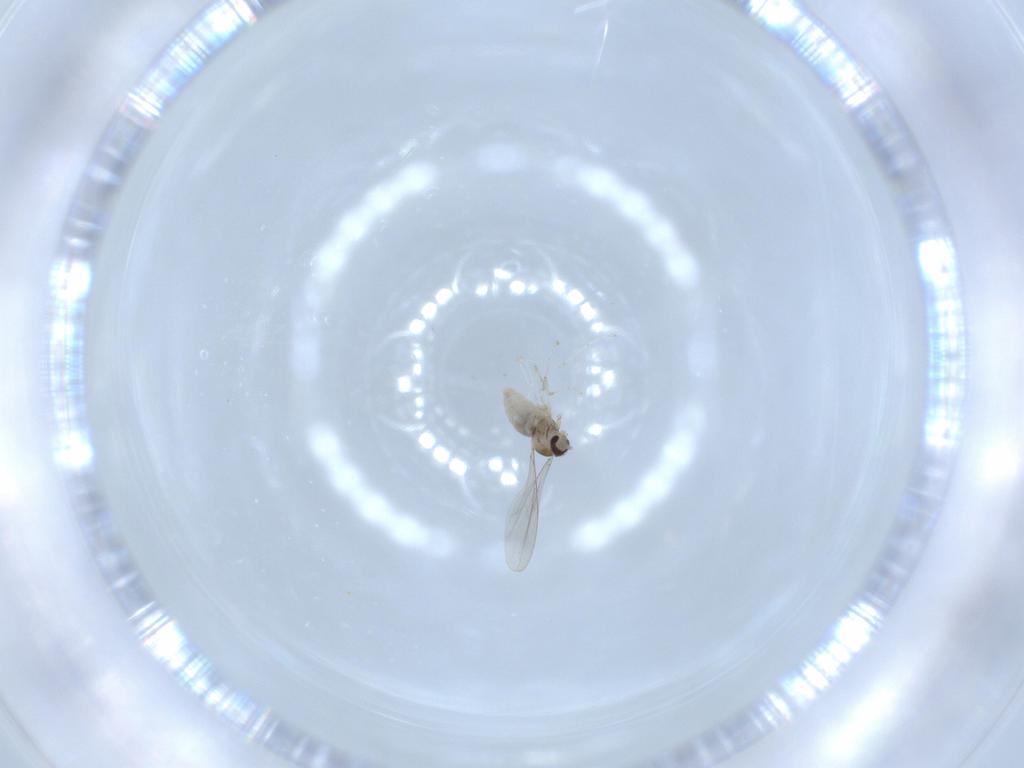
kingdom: Animalia
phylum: Arthropoda
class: Insecta
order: Diptera
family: Cecidomyiidae
